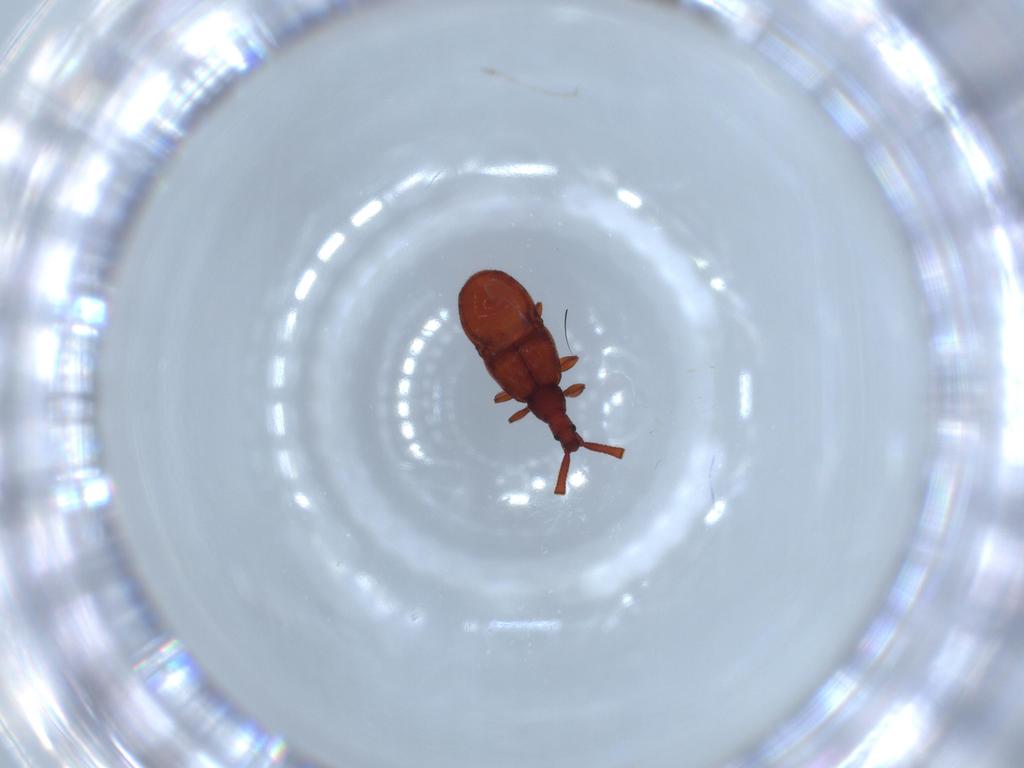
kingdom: Animalia
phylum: Arthropoda
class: Insecta
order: Coleoptera
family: Staphylinidae
